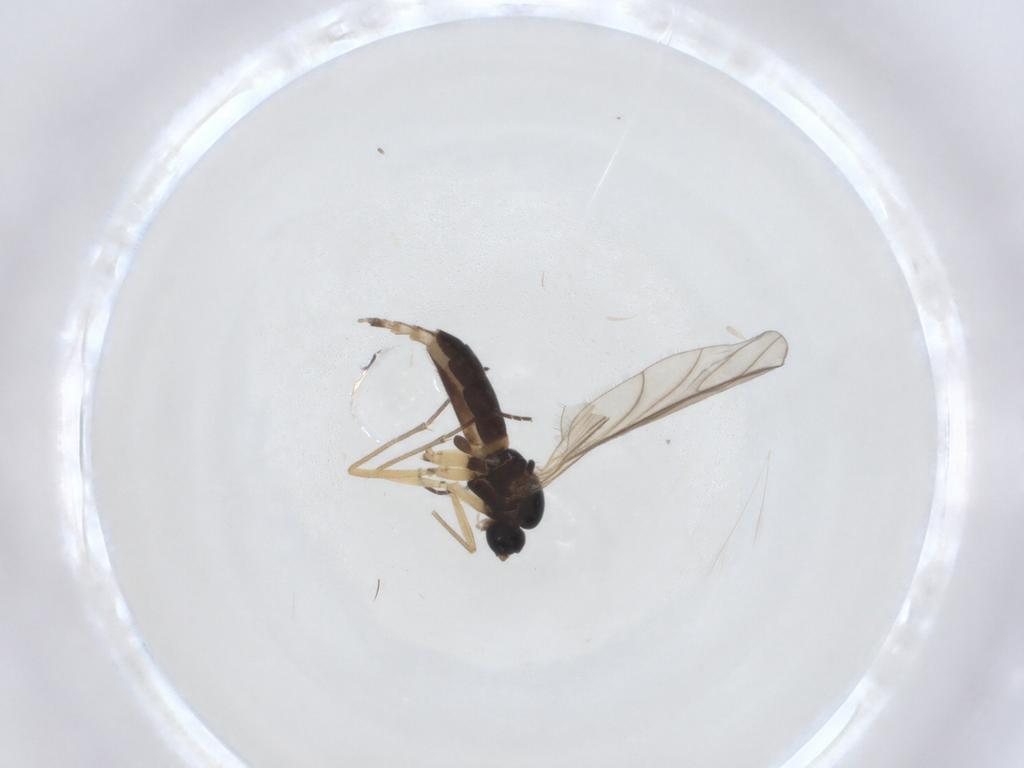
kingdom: Animalia
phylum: Arthropoda
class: Insecta
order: Diptera
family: Sciaridae
